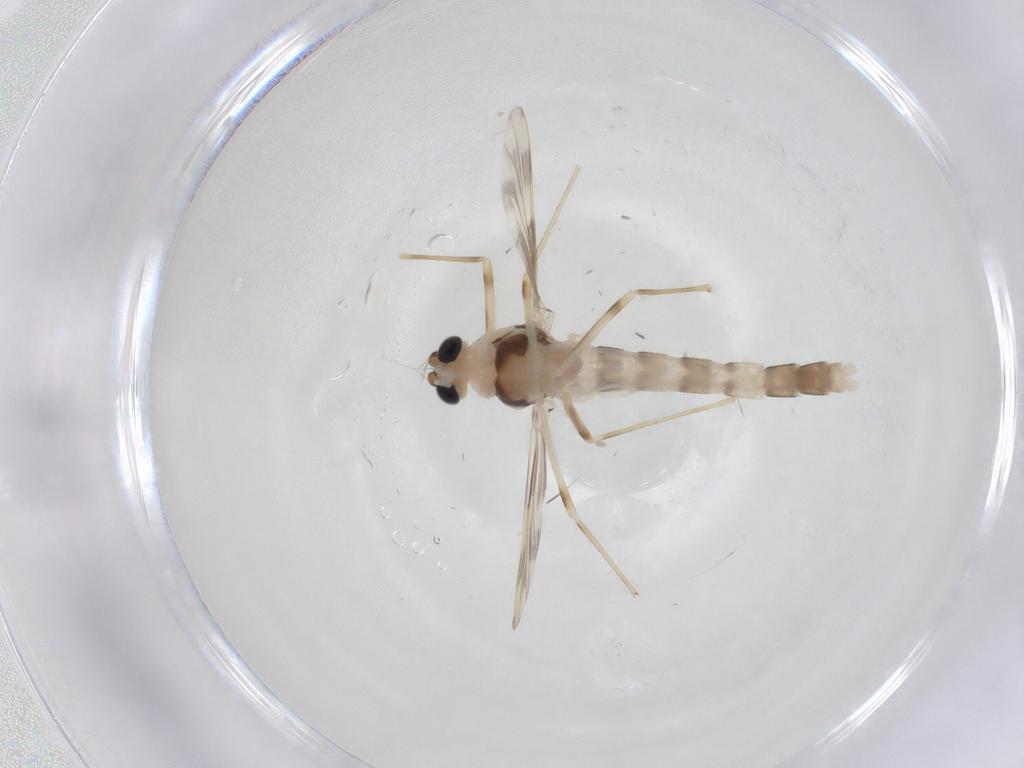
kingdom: Animalia
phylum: Arthropoda
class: Insecta
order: Diptera
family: Chironomidae
